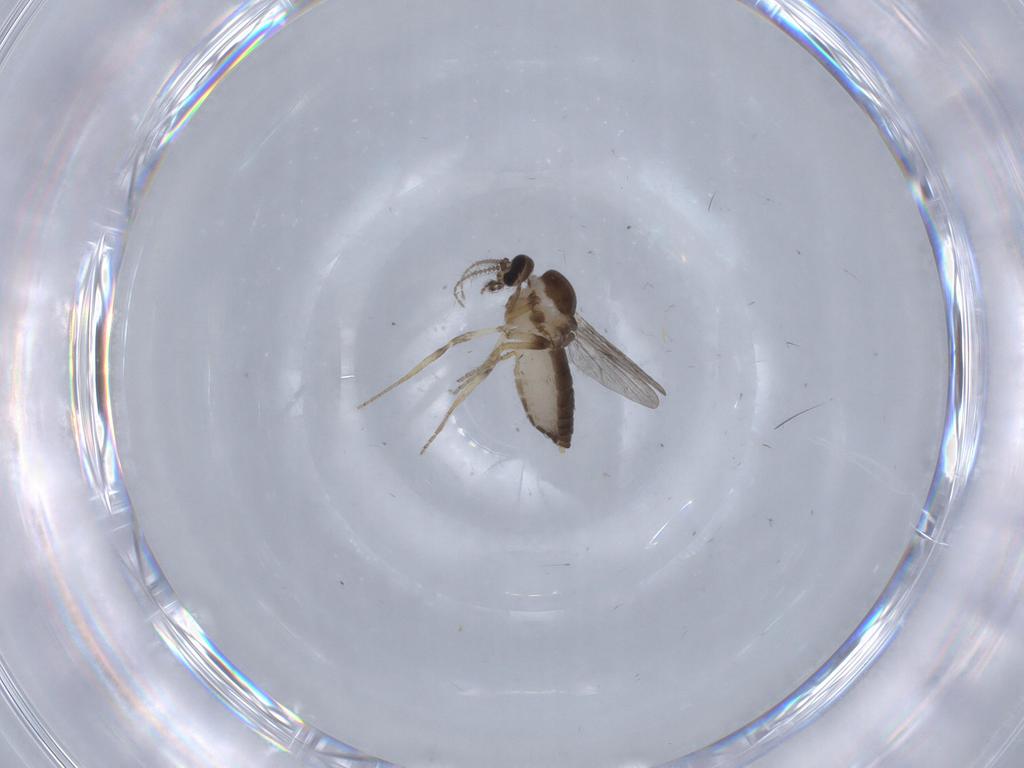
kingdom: Animalia
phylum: Arthropoda
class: Insecta
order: Diptera
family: Ceratopogonidae
